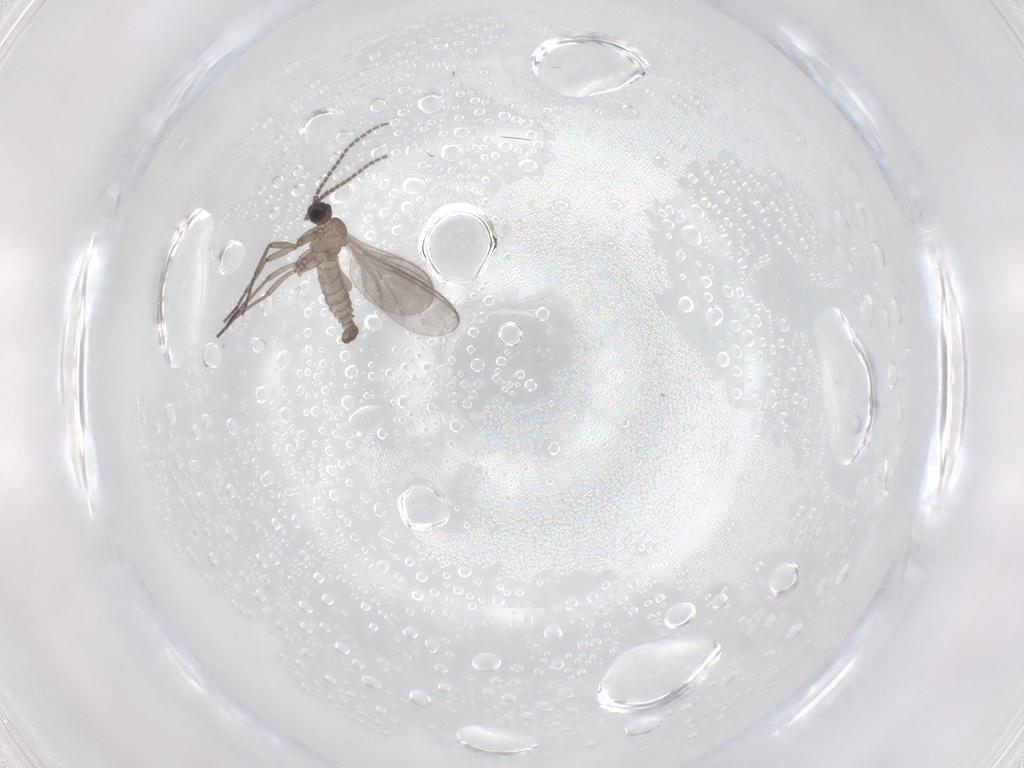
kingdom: Animalia
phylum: Arthropoda
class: Insecta
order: Diptera
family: Sciaridae
